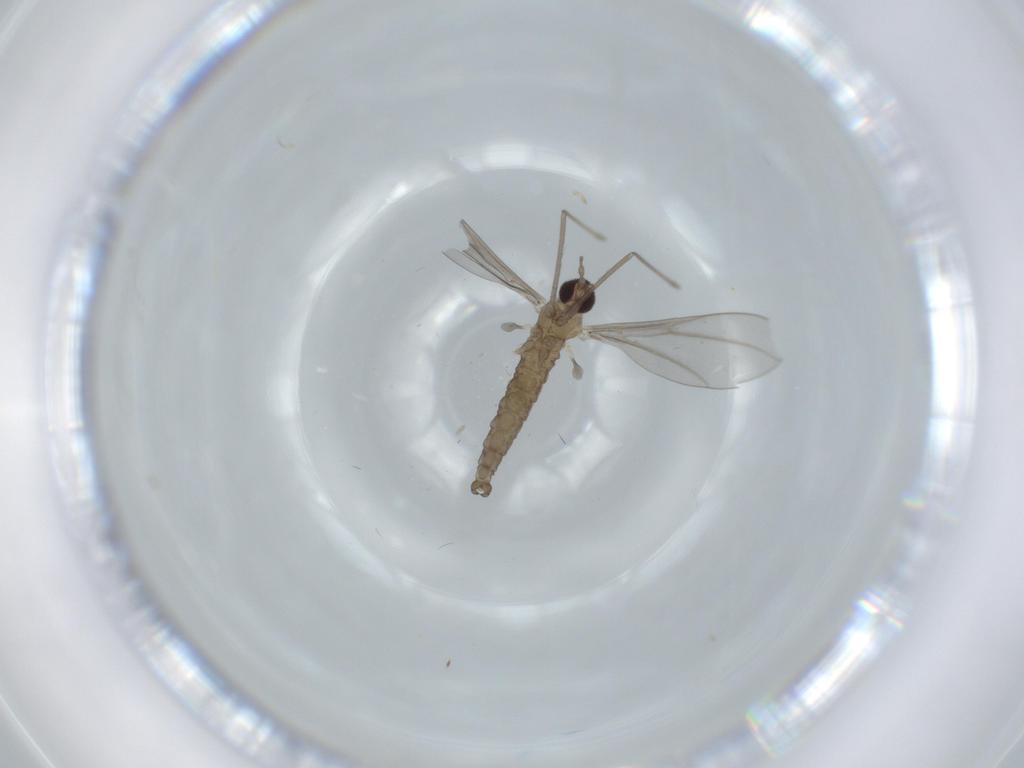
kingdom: Animalia
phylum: Arthropoda
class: Insecta
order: Diptera
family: Cecidomyiidae
